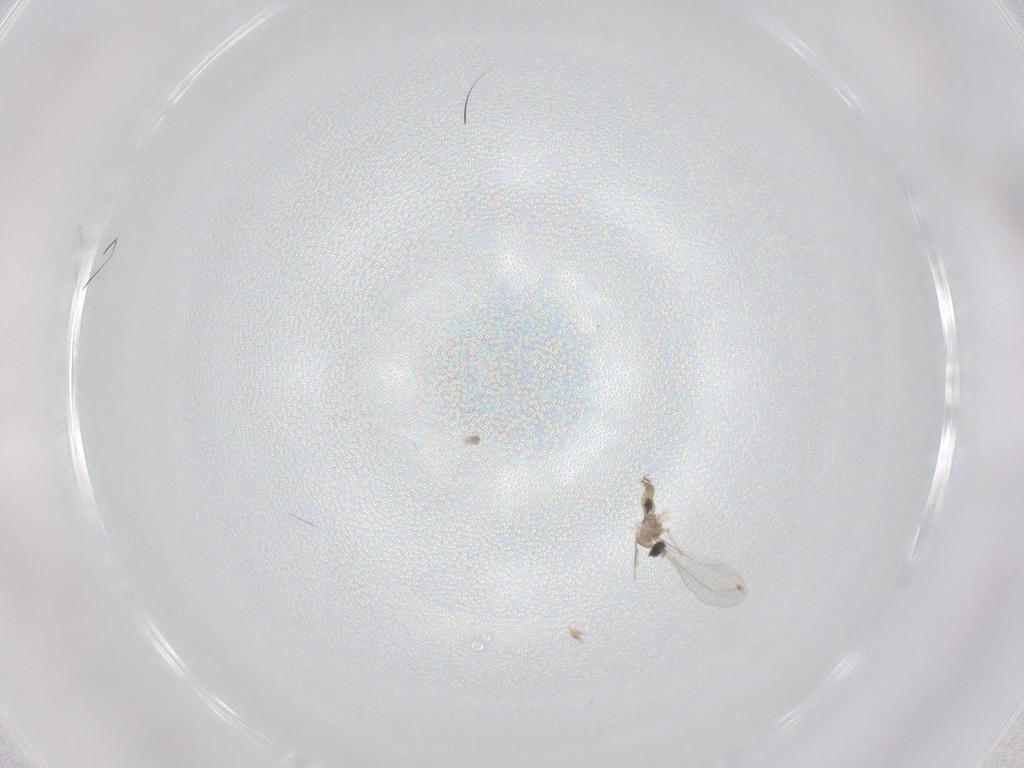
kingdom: Animalia
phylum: Arthropoda
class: Insecta
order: Diptera
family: Cecidomyiidae
